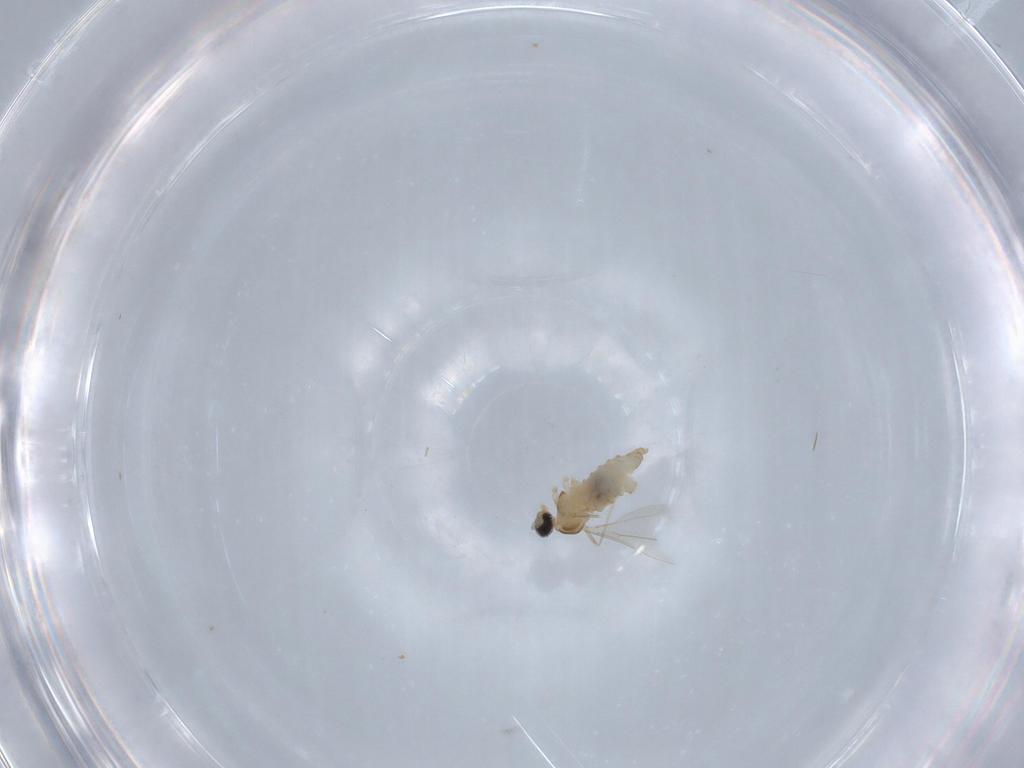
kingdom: Animalia
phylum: Arthropoda
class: Insecta
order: Diptera
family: Cecidomyiidae
